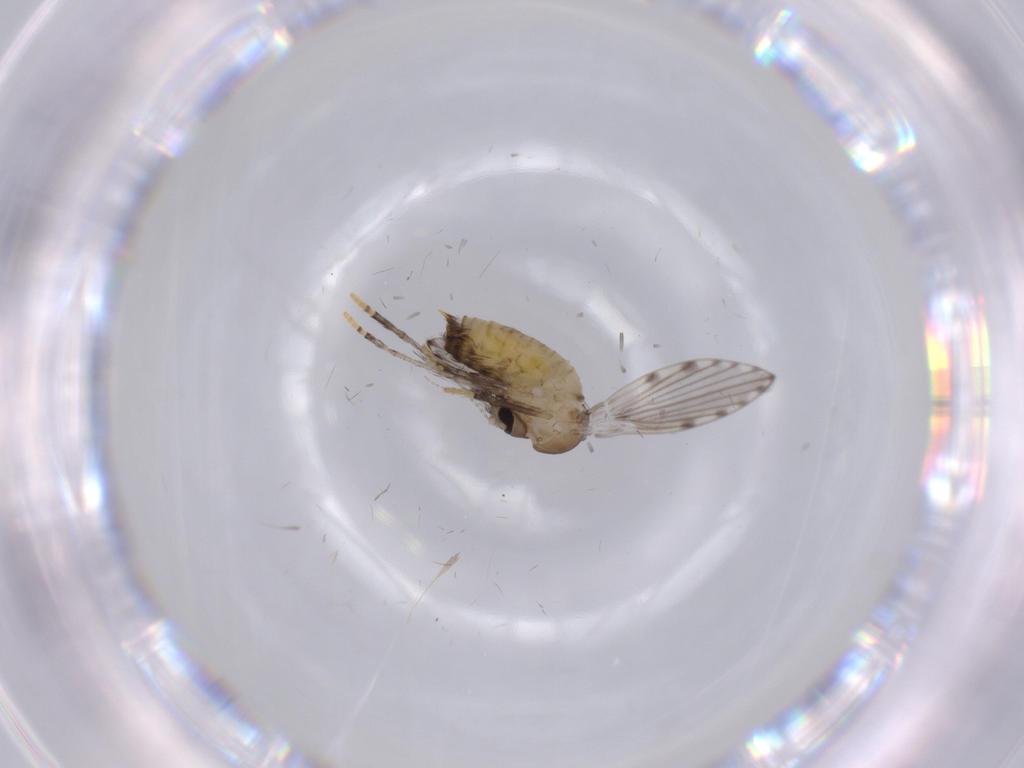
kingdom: Animalia
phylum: Arthropoda
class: Insecta
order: Diptera
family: Psychodidae
